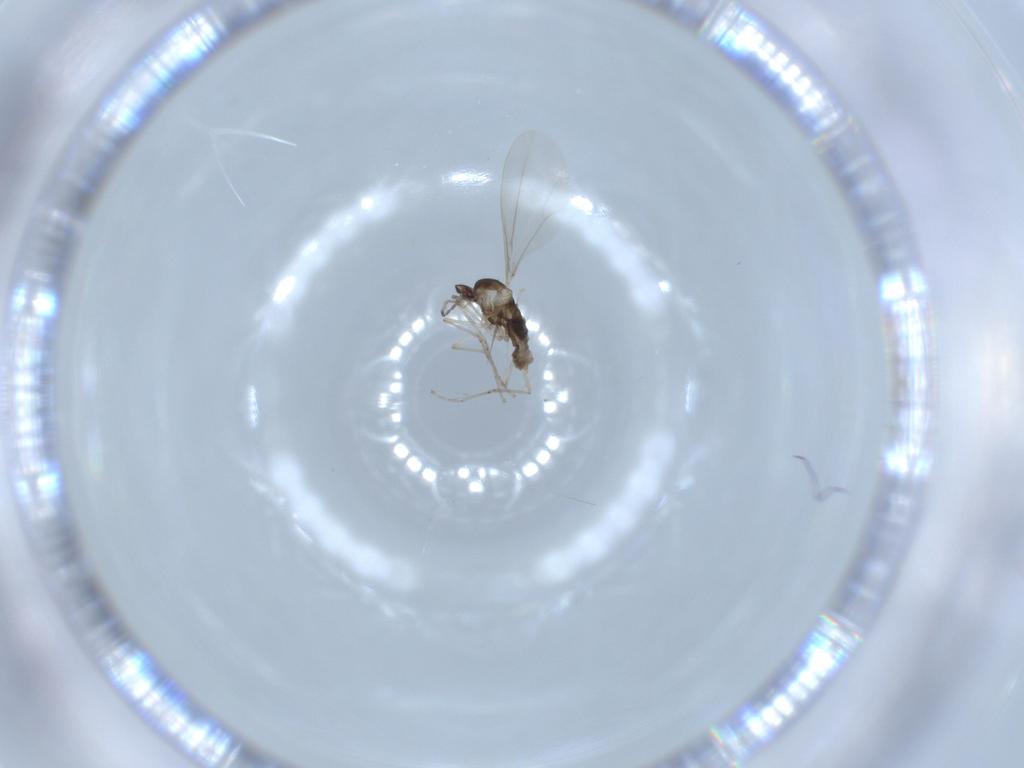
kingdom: Animalia
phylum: Arthropoda
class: Insecta
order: Diptera
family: Cecidomyiidae
